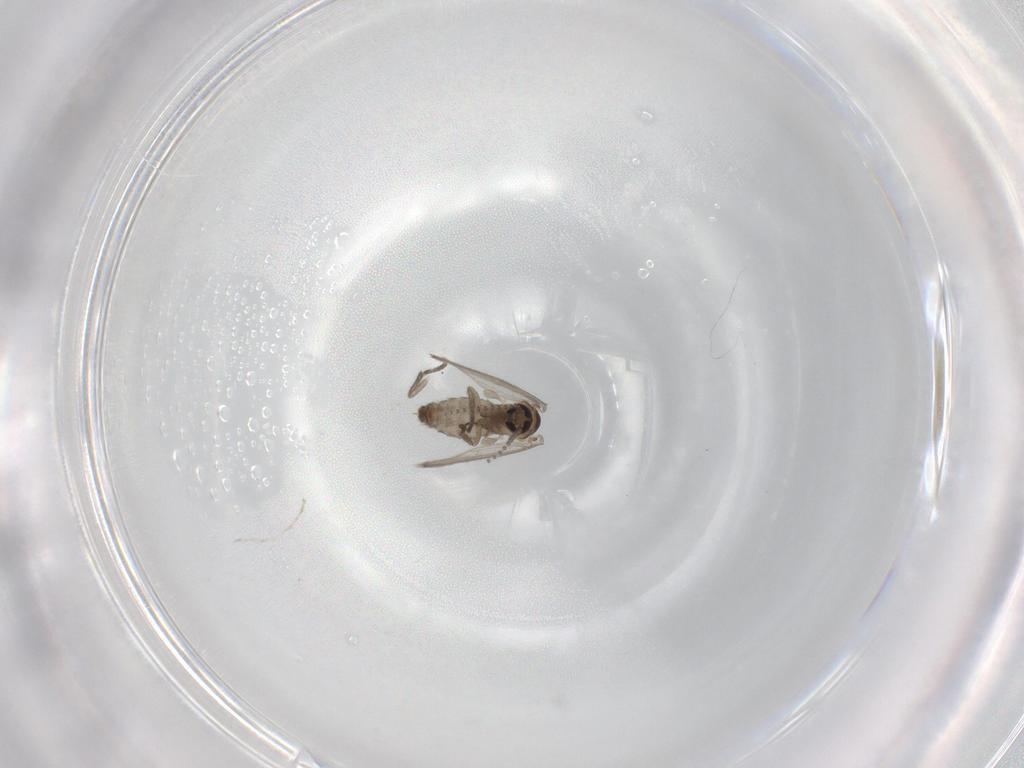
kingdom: Animalia
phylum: Arthropoda
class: Insecta
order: Diptera
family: Psychodidae
